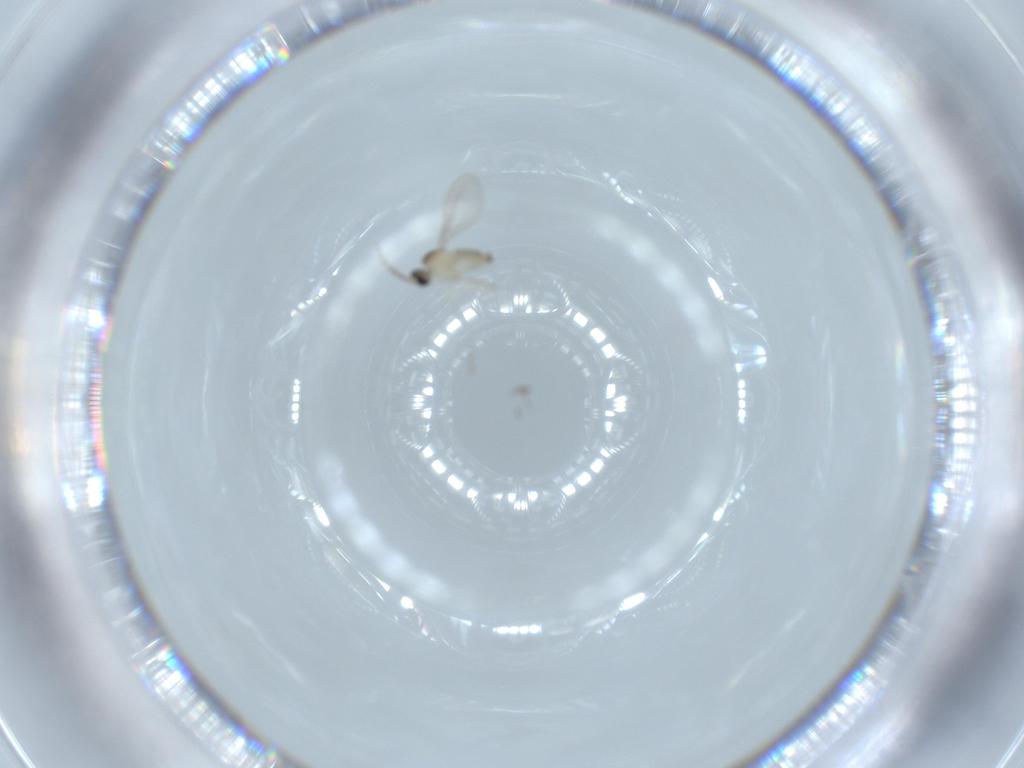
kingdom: Animalia
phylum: Arthropoda
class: Insecta
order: Diptera
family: Cecidomyiidae
